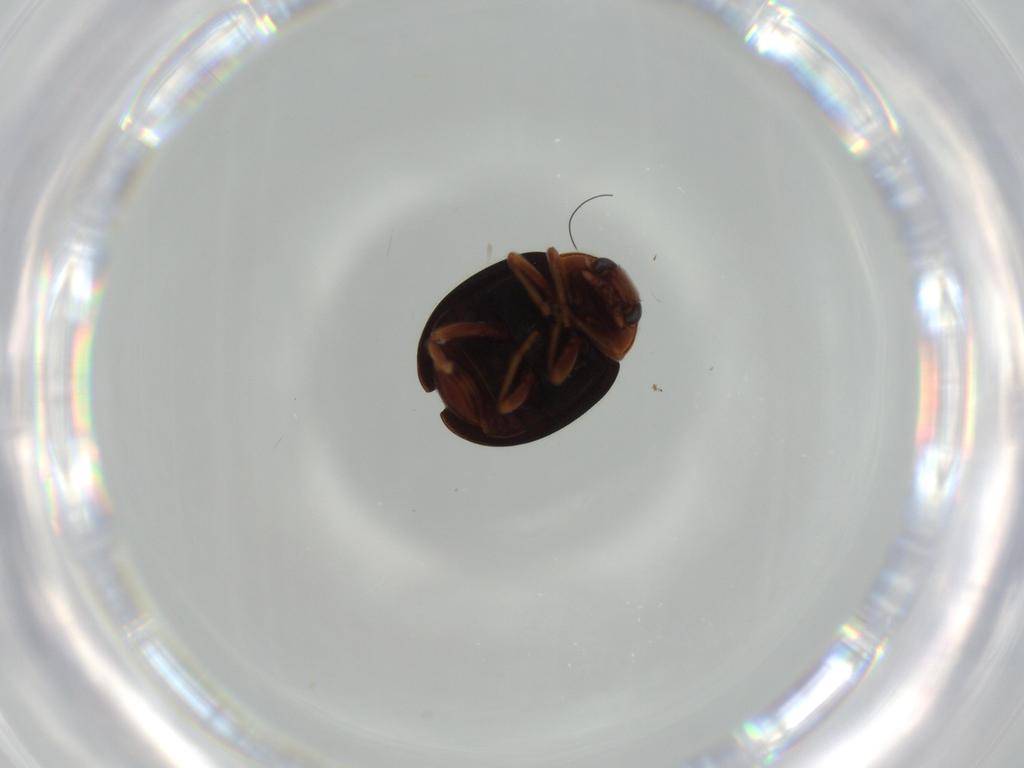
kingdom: Animalia
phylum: Arthropoda
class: Insecta
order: Coleoptera
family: Coccinellidae
